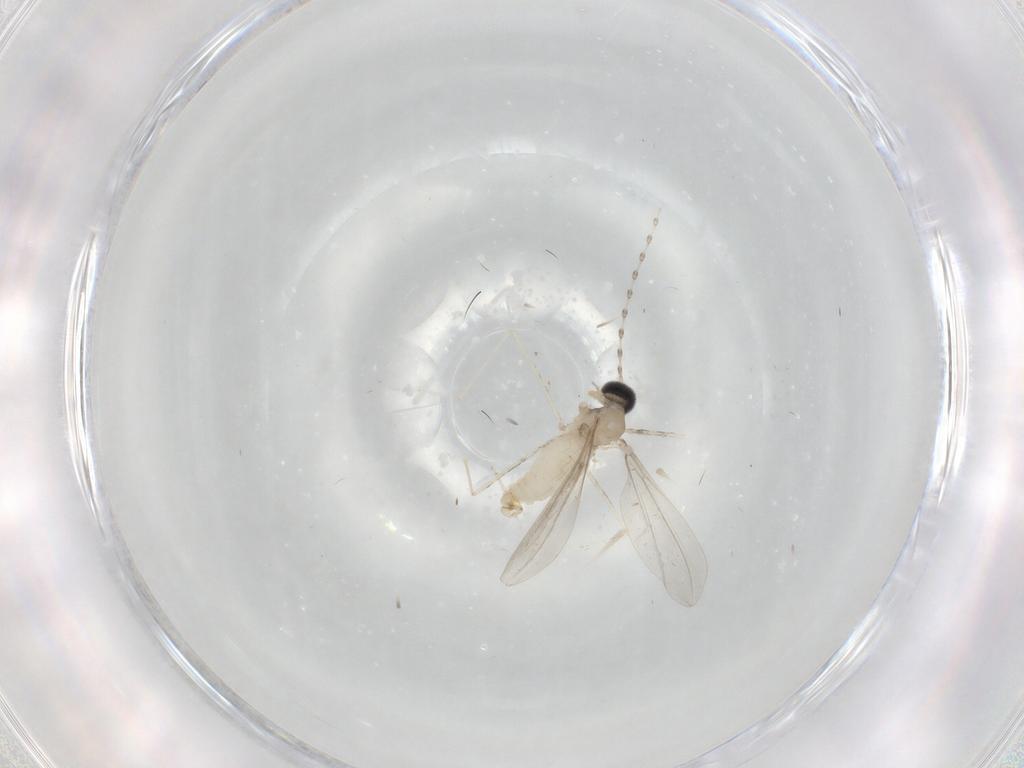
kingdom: Animalia
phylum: Arthropoda
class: Insecta
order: Diptera
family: Cecidomyiidae
